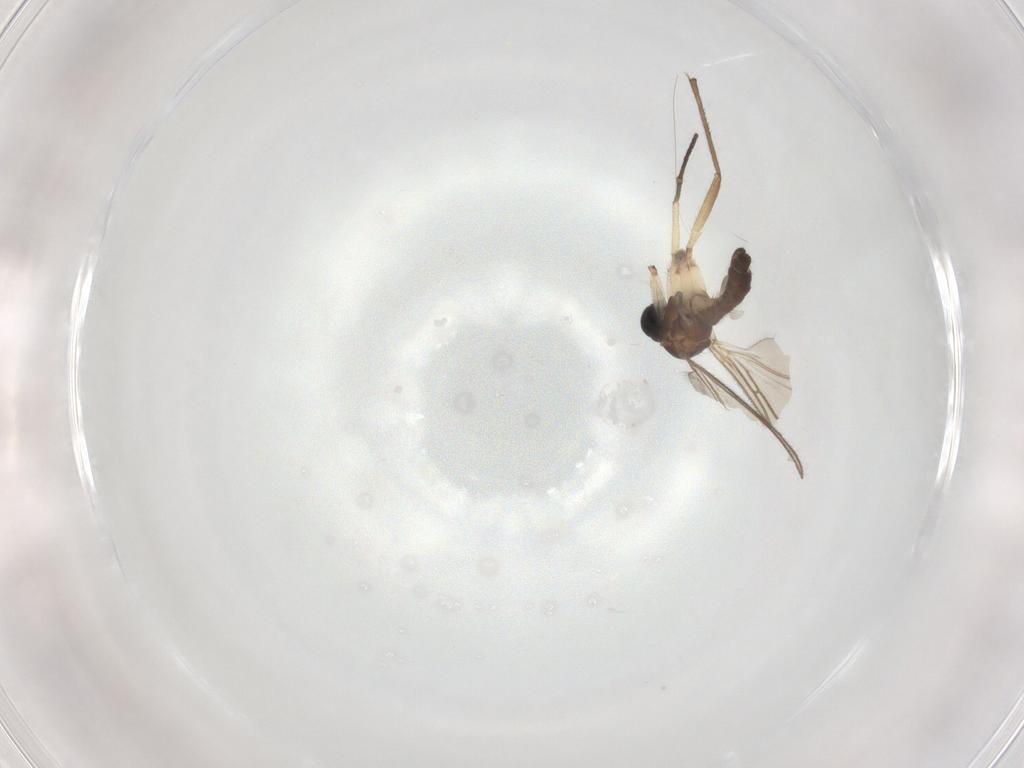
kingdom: Animalia
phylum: Arthropoda
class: Insecta
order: Diptera
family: Sciaridae
